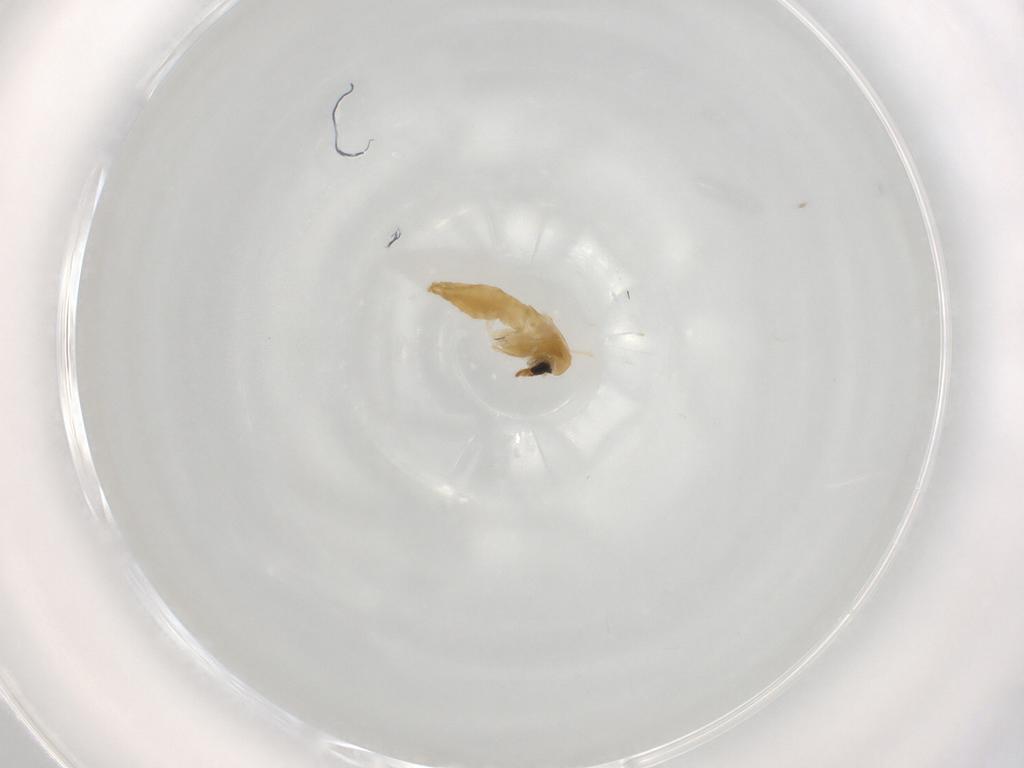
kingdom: Animalia
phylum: Arthropoda
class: Insecta
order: Diptera
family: Chironomidae
